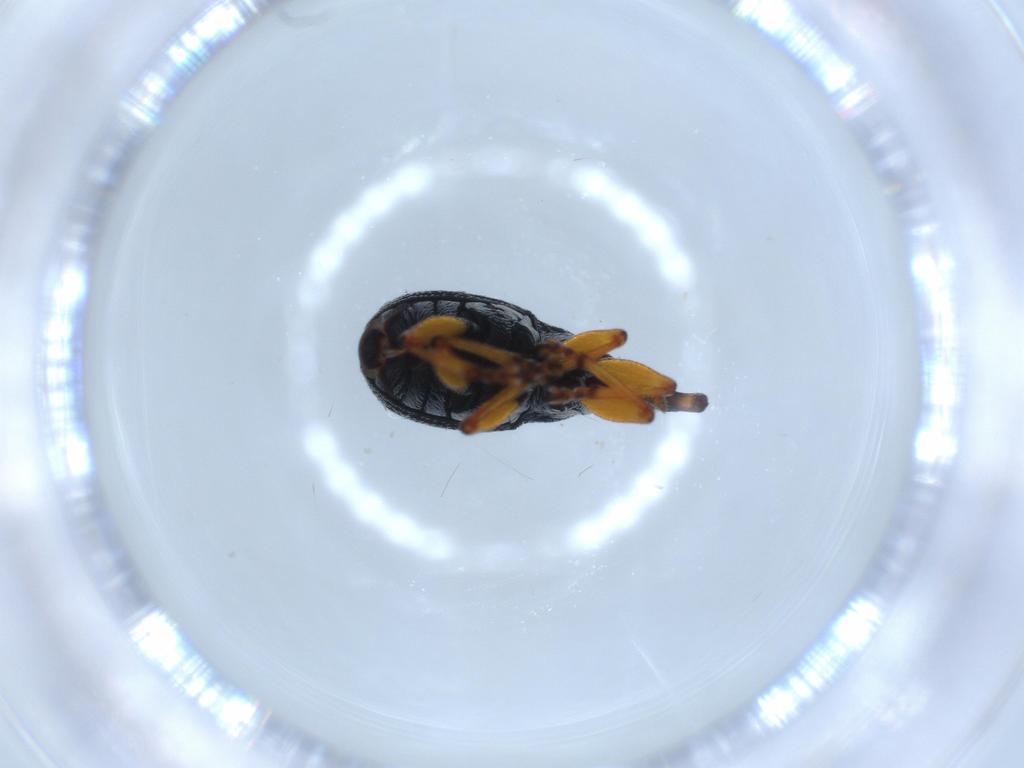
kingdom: Animalia
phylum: Arthropoda
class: Insecta
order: Coleoptera
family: Brentidae
